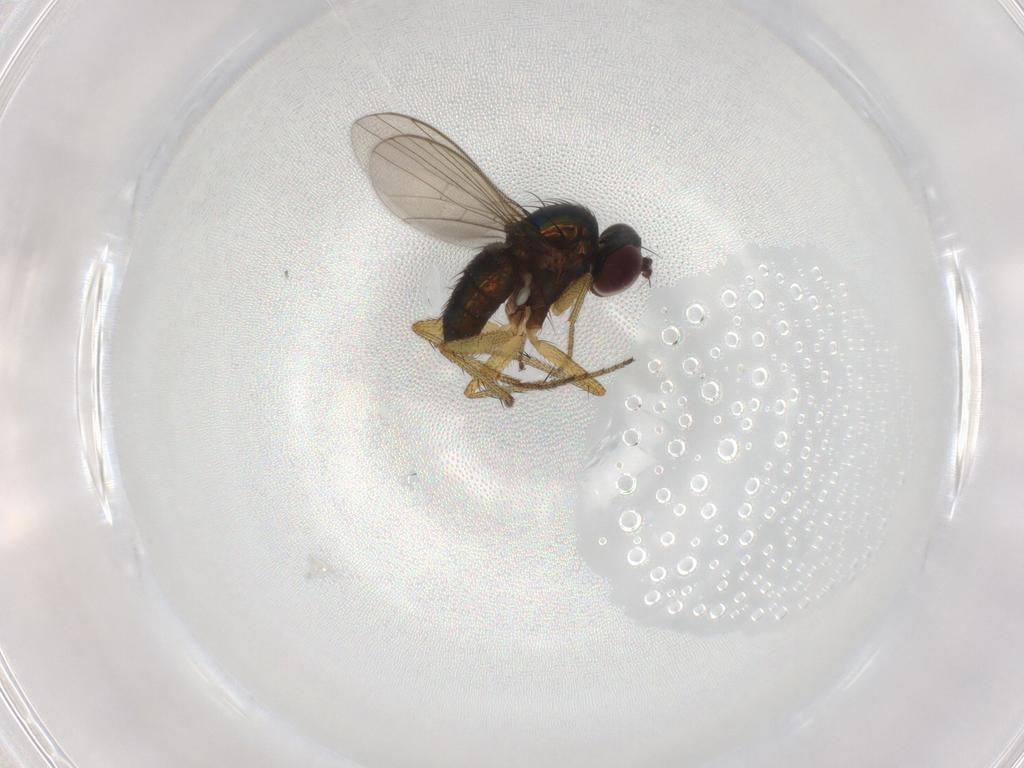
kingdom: Animalia
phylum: Arthropoda
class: Insecta
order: Diptera
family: Dolichopodidae
